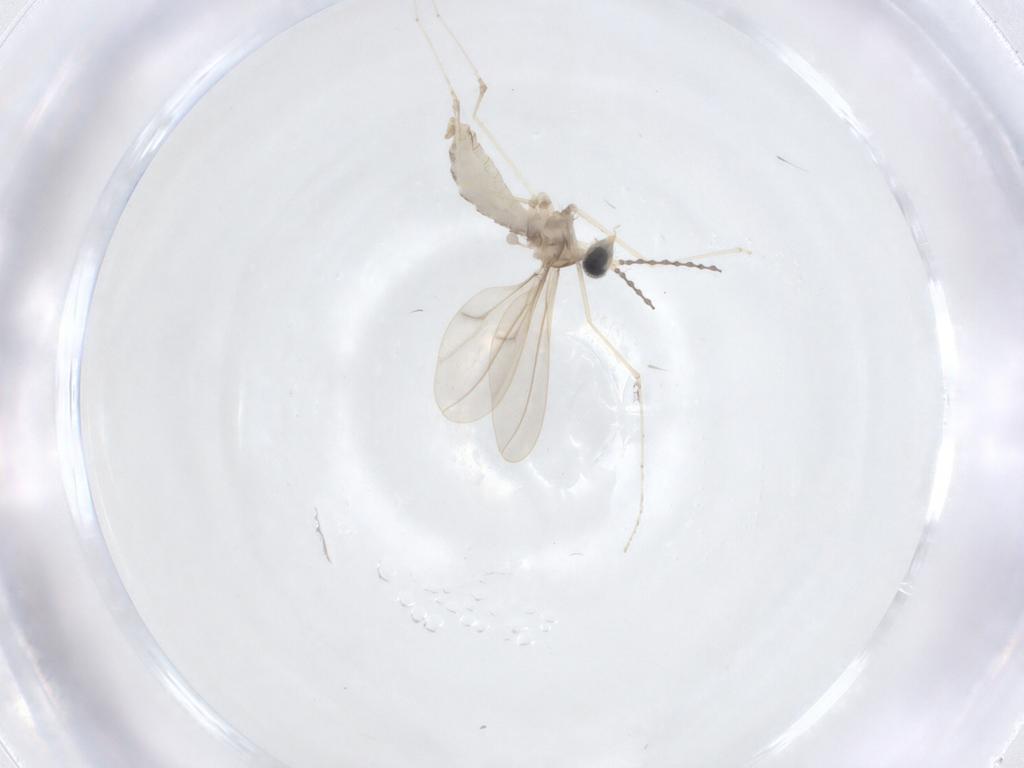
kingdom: Animalia
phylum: Arthropoda
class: Insecta
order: Diptera
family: Cecidomyiidae
